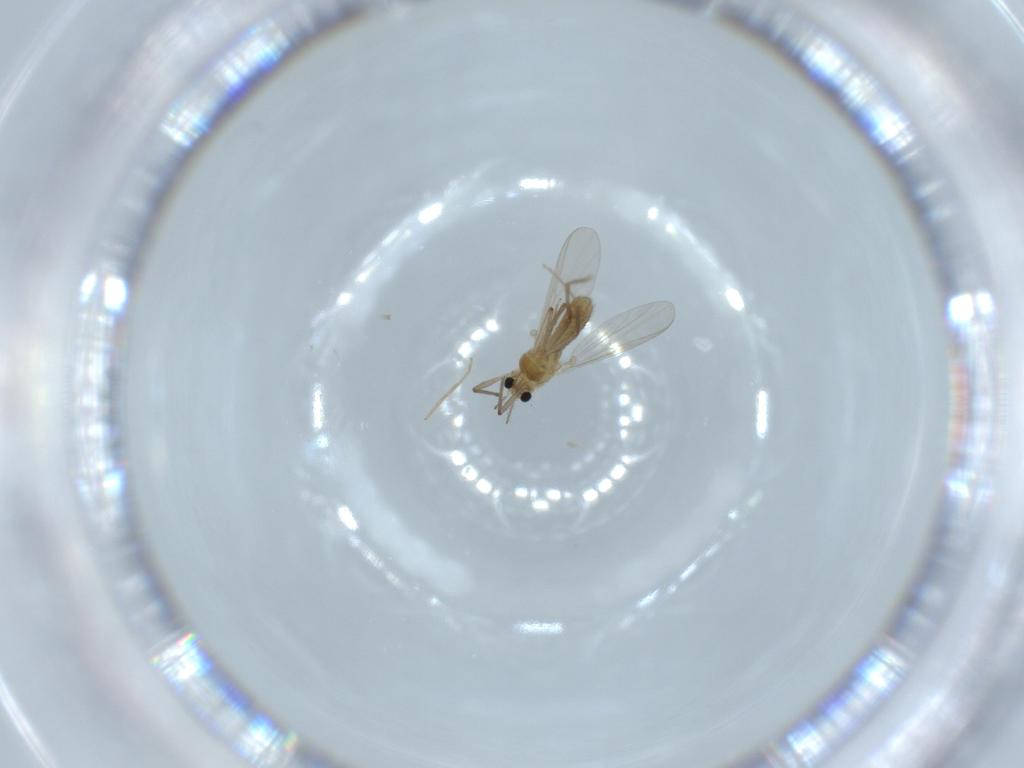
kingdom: Animalia
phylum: Arthropoda
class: Insecta
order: Diptera
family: Chironomidae
